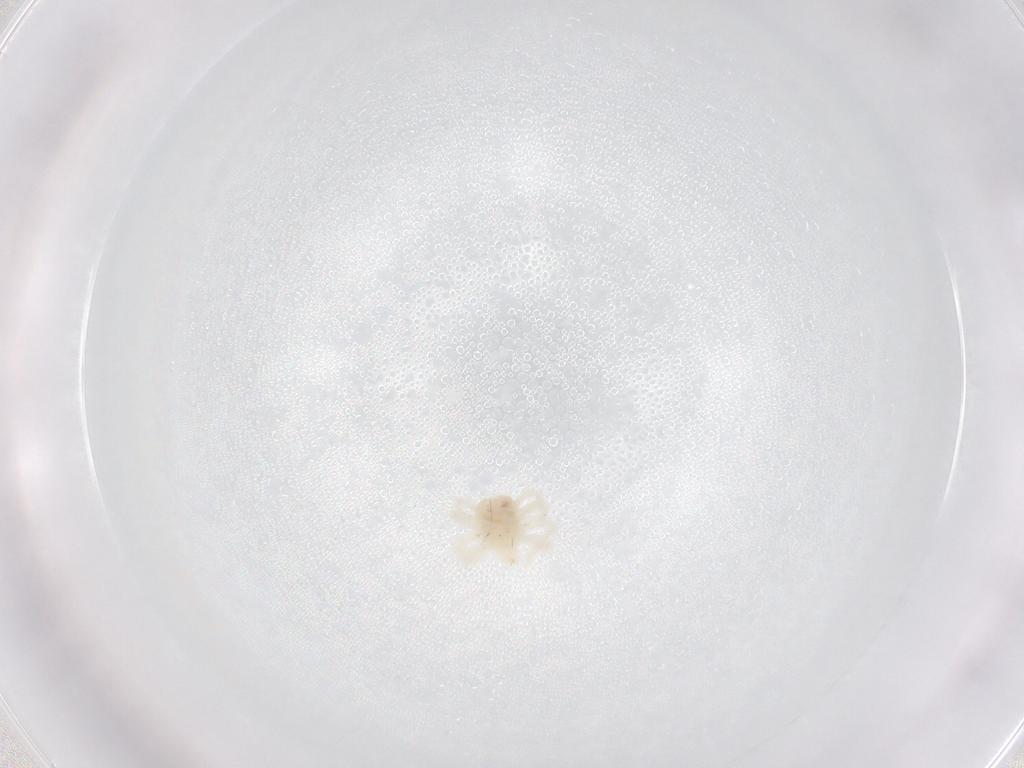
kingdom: Animalia
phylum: Arthropoda
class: Arachnida
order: Trombidiformes
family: Anystidae
